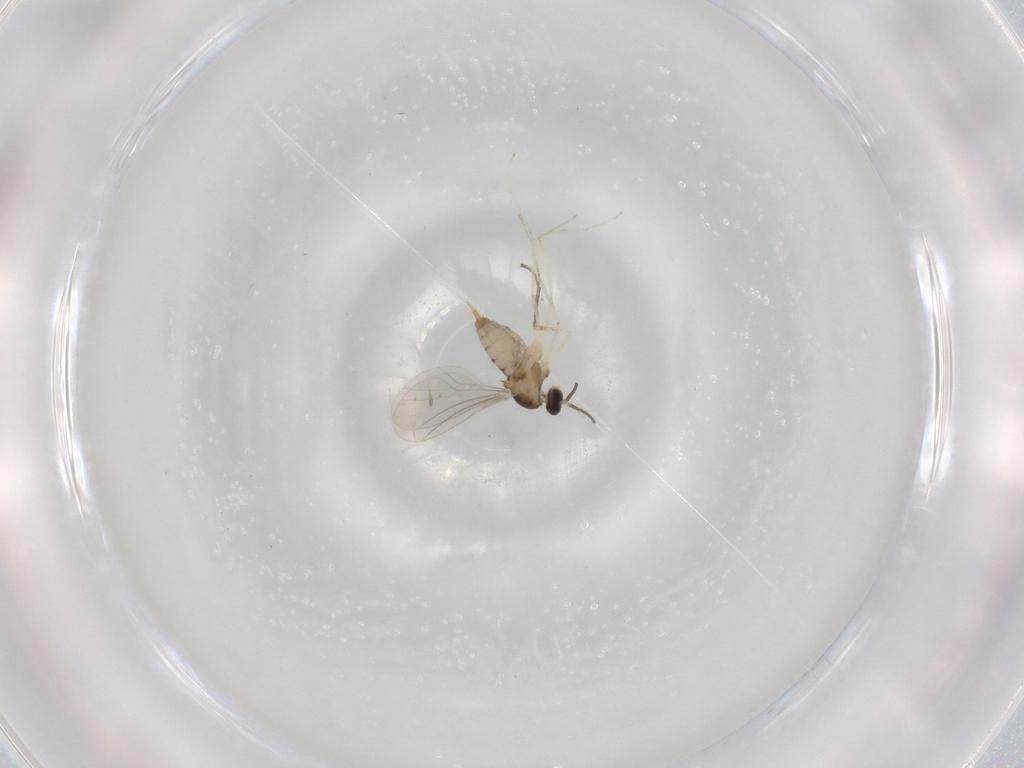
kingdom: Animalia
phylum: Arthropoda
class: Insecta
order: Diptera
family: Cecidomyiidae
